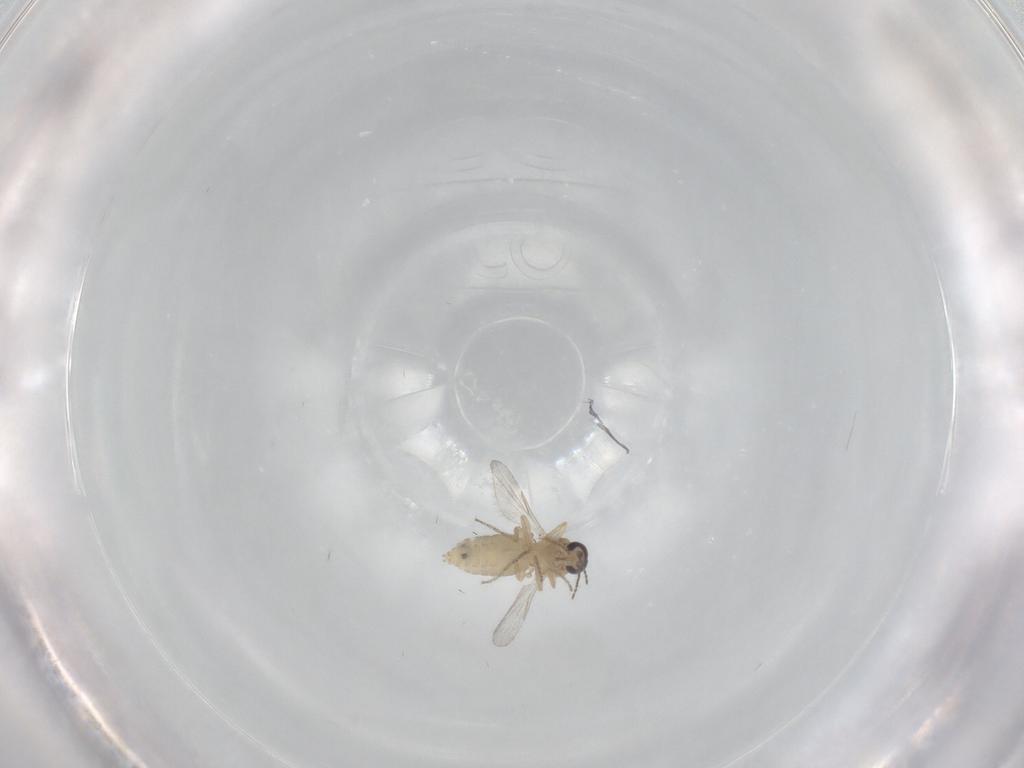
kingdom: Animalia
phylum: Arthropoda
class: Insecta
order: Diptera
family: Ceratopogonidae
